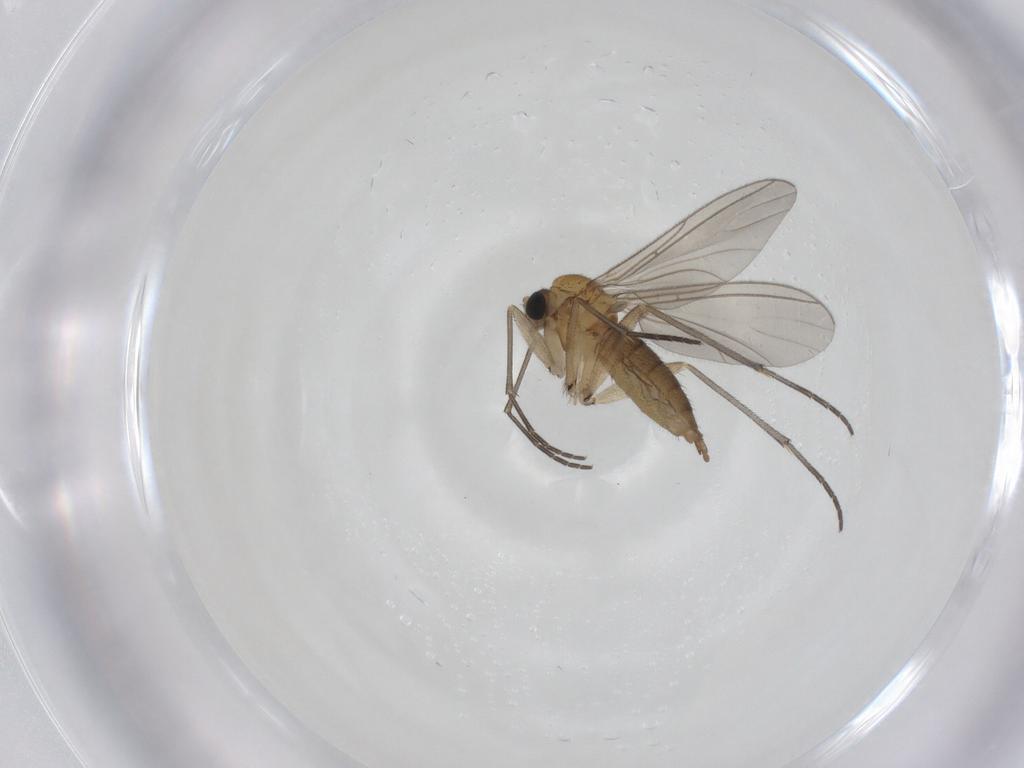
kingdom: Animalia
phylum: Arthropoda
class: Insecta
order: Diptera
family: Sciaridae
